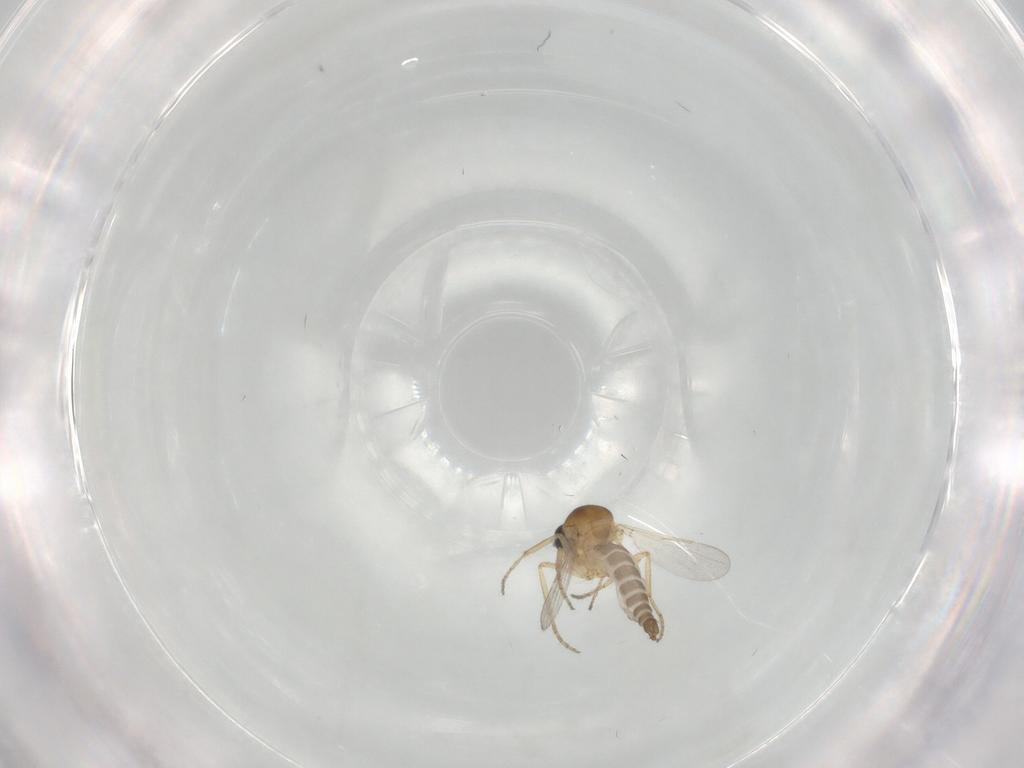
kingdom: Animalia
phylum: Arthropoda
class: Insecta
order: Diptera
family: Ceratopogonidae
